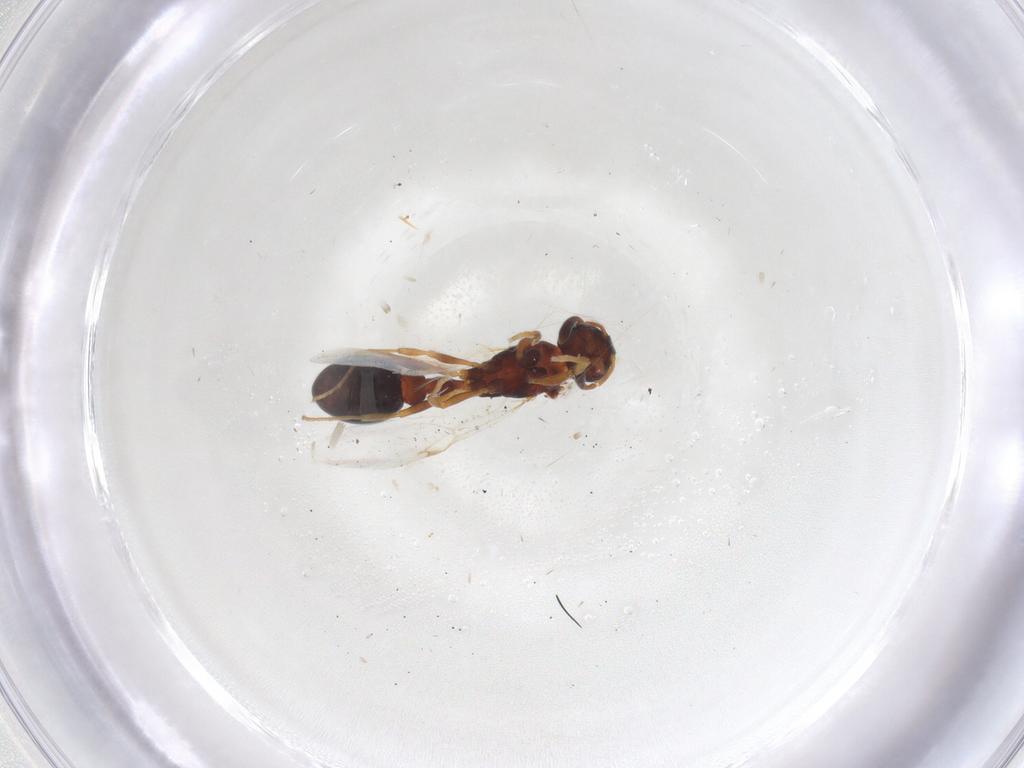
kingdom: Animalia
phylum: Arthropoda
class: Insecta
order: Hymenoptera
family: Formicidae
